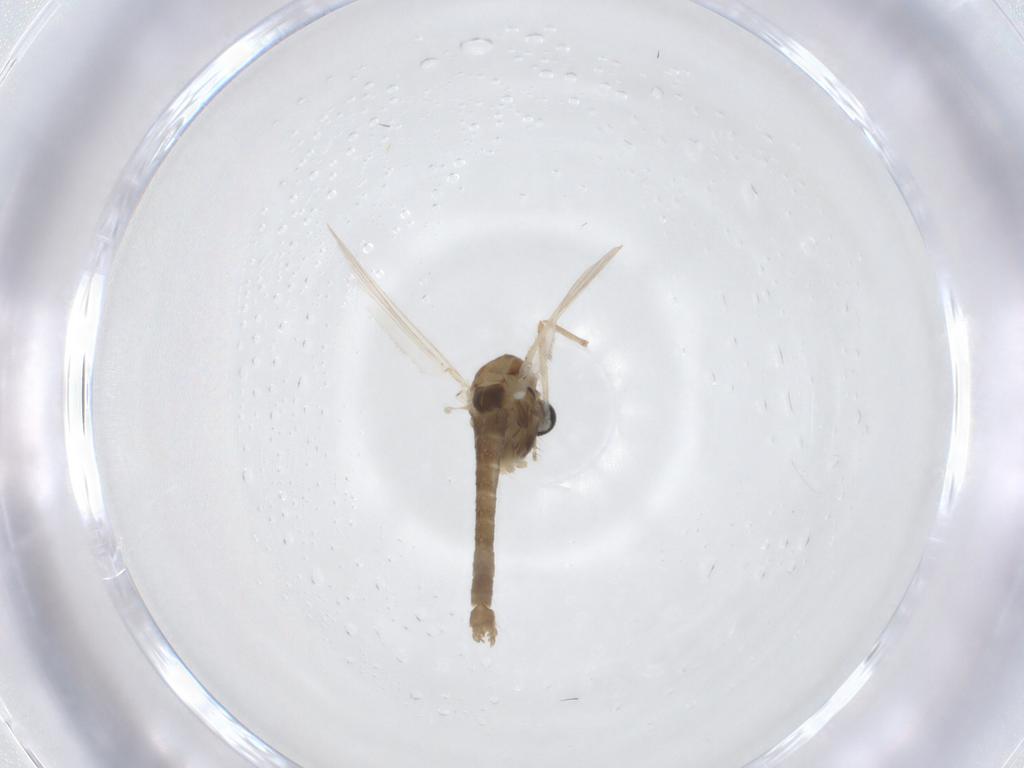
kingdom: Animalia
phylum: Arthropoda
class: Insecta
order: Diptera
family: Chironomidae
